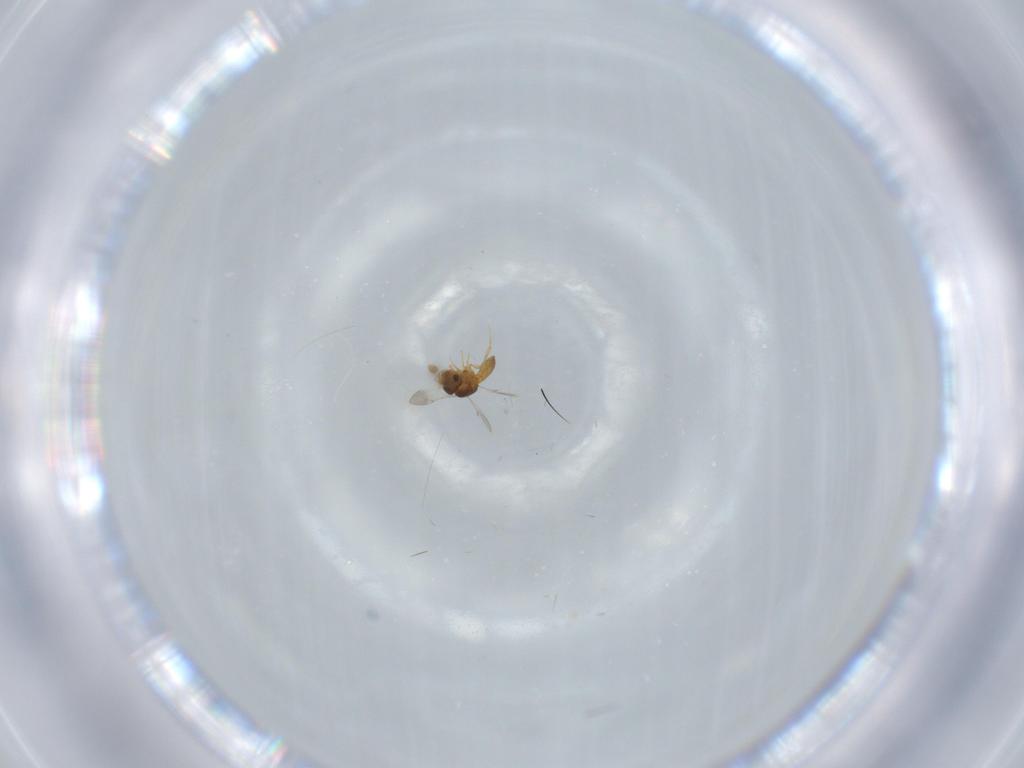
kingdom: Animalia
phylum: Arthropoda
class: Insecta
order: Hymenoptera
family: Scelionidae
